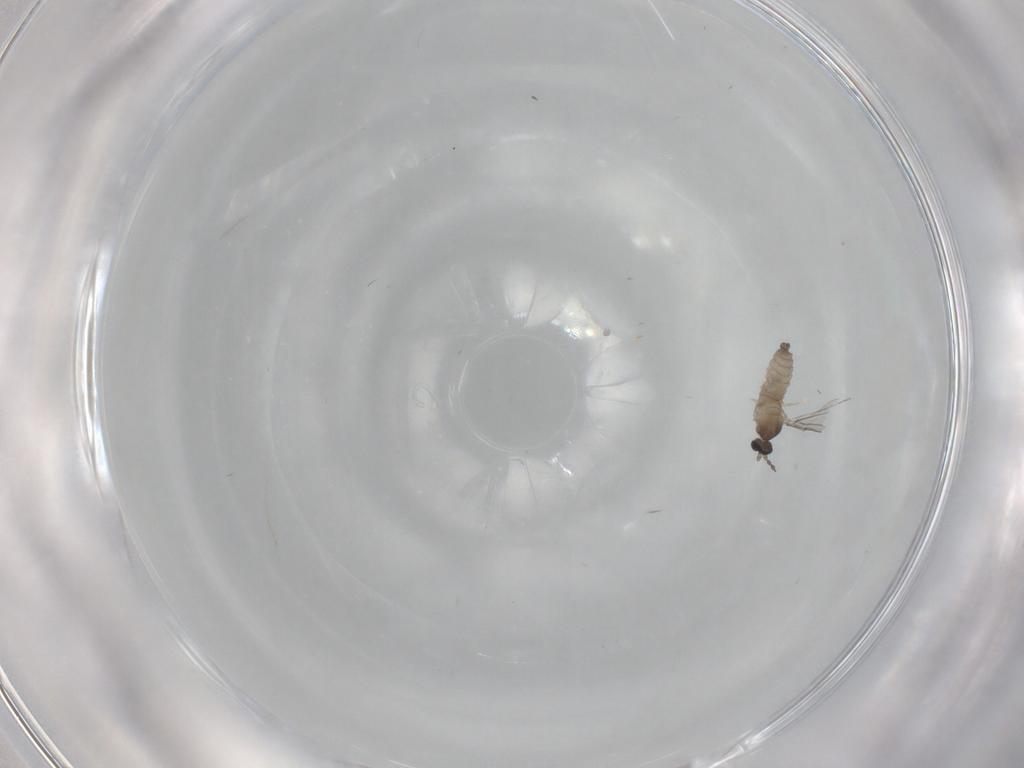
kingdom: Animalia
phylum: Arthropoda
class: Insecta
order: Diptera
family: Cecidomyiidae
